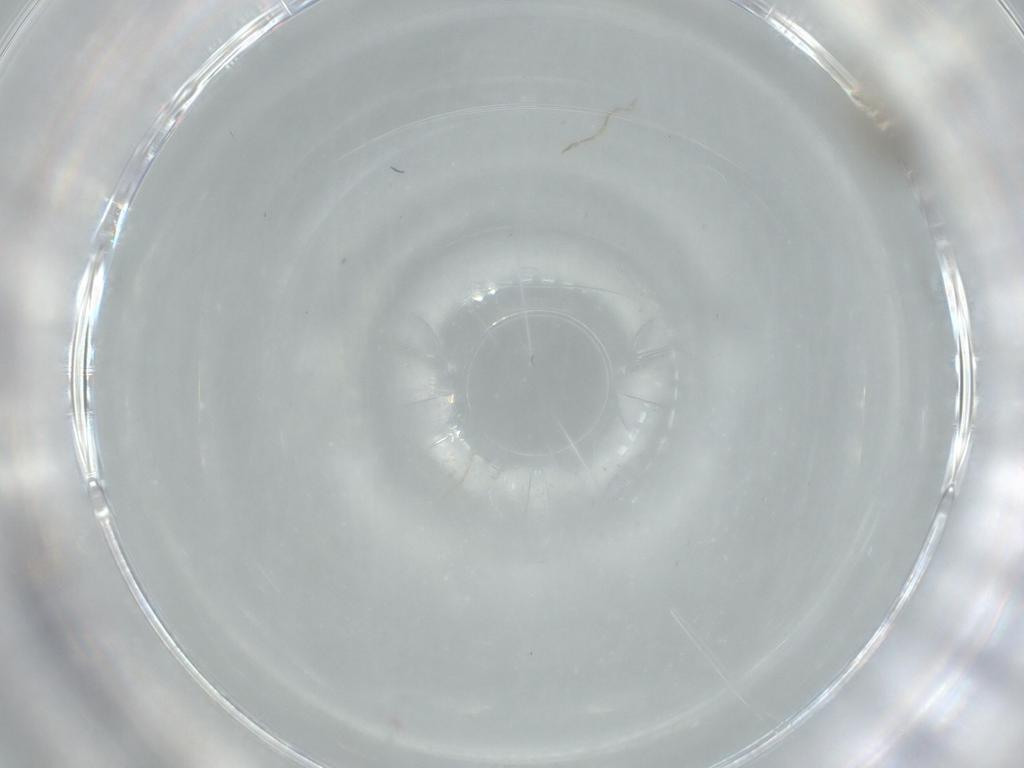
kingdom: Animalia
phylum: Arthropoda
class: Insecta
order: Diptera
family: Cecidomyiidae
